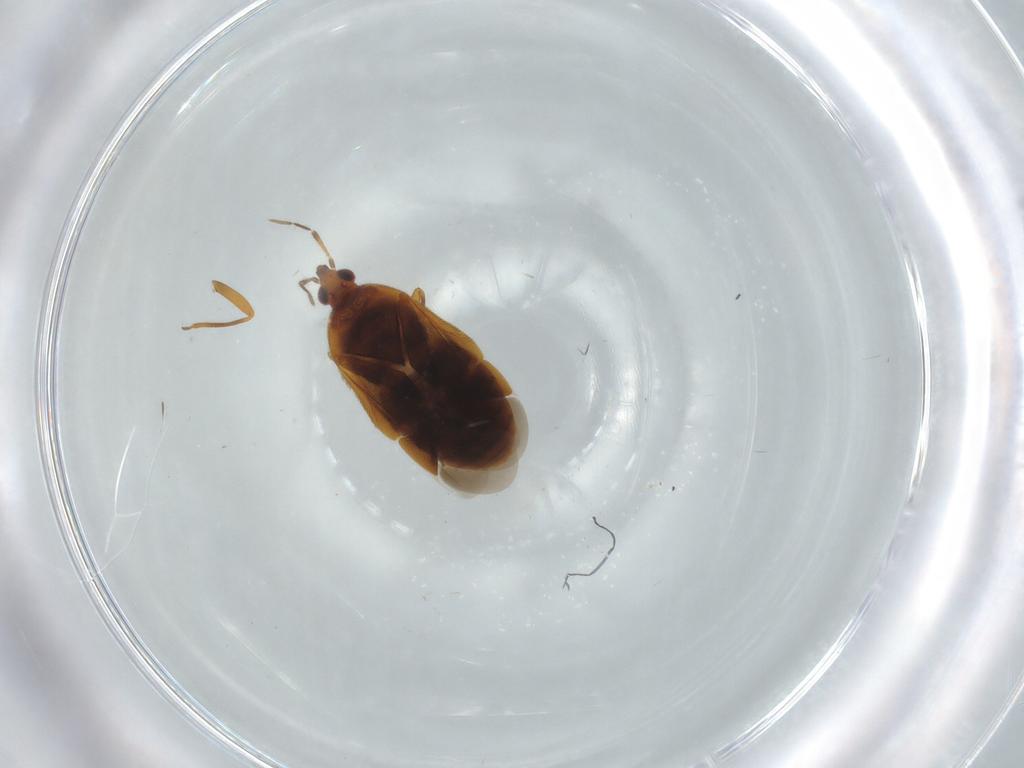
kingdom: Animalia
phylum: Arthropoda
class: Insecta
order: Hemiptera
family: Anthocoridae
